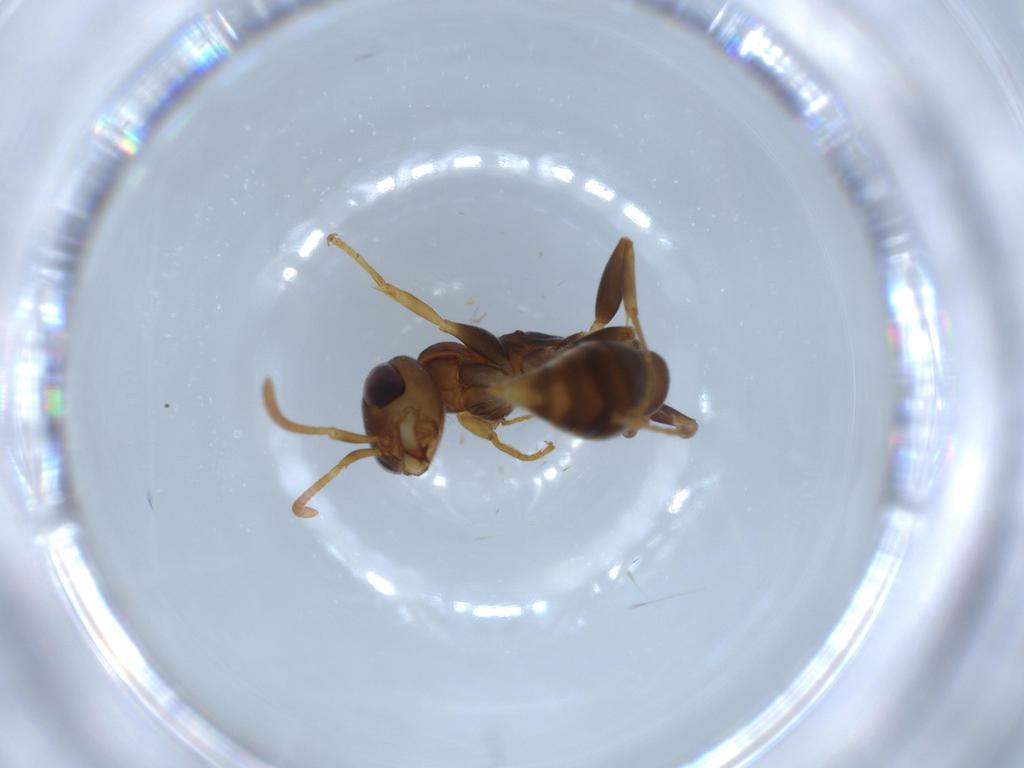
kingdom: Animalia
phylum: Arthropoda
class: Insecta
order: Hymenoptera
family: Formicidae
